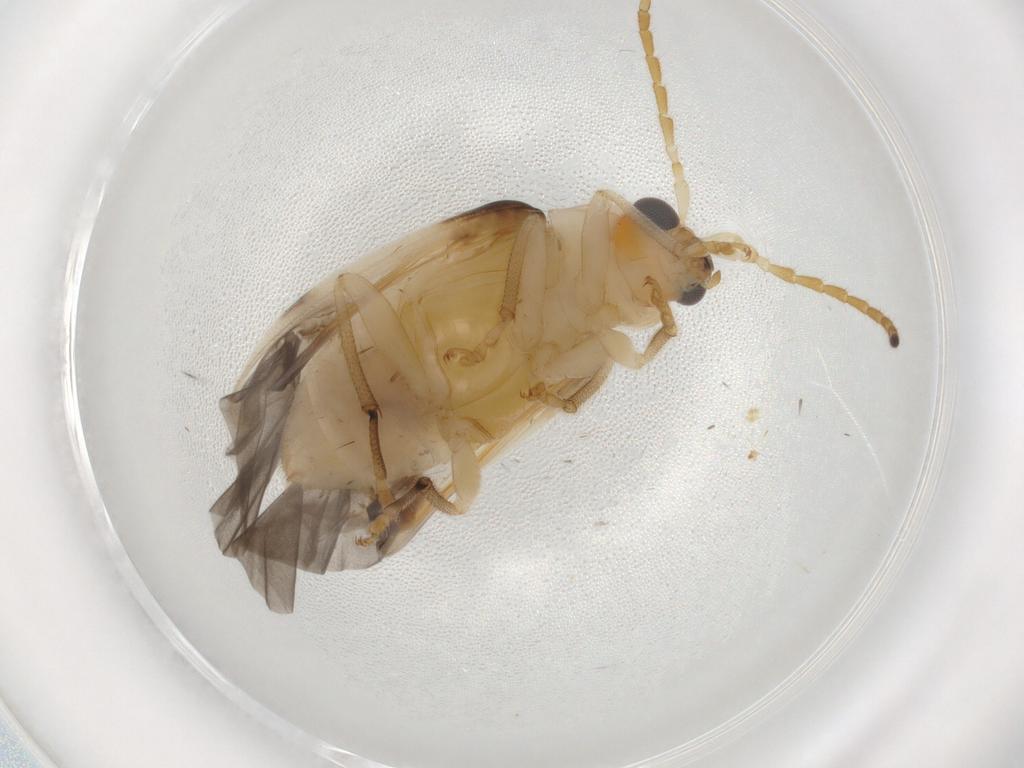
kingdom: Animalia
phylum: Arthropoda
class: Insecta
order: Coleoptera
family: Chrysomelidae
